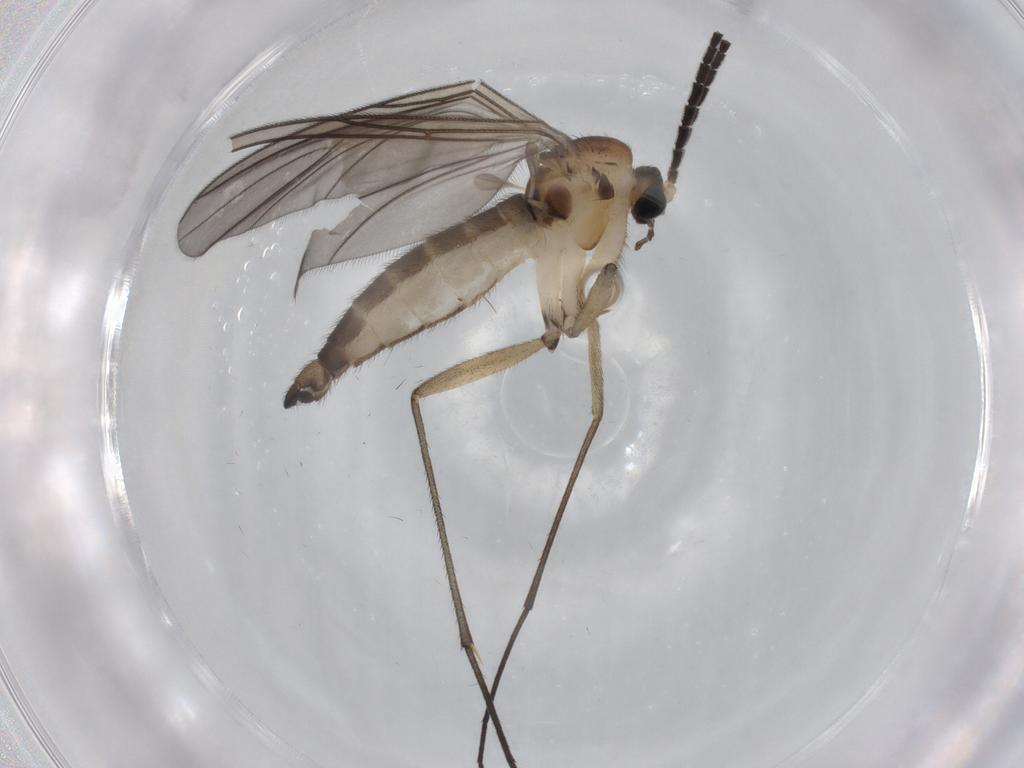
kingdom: Animalia
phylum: Arthropoda
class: Insecta
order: Diptera
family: Sciaridae
